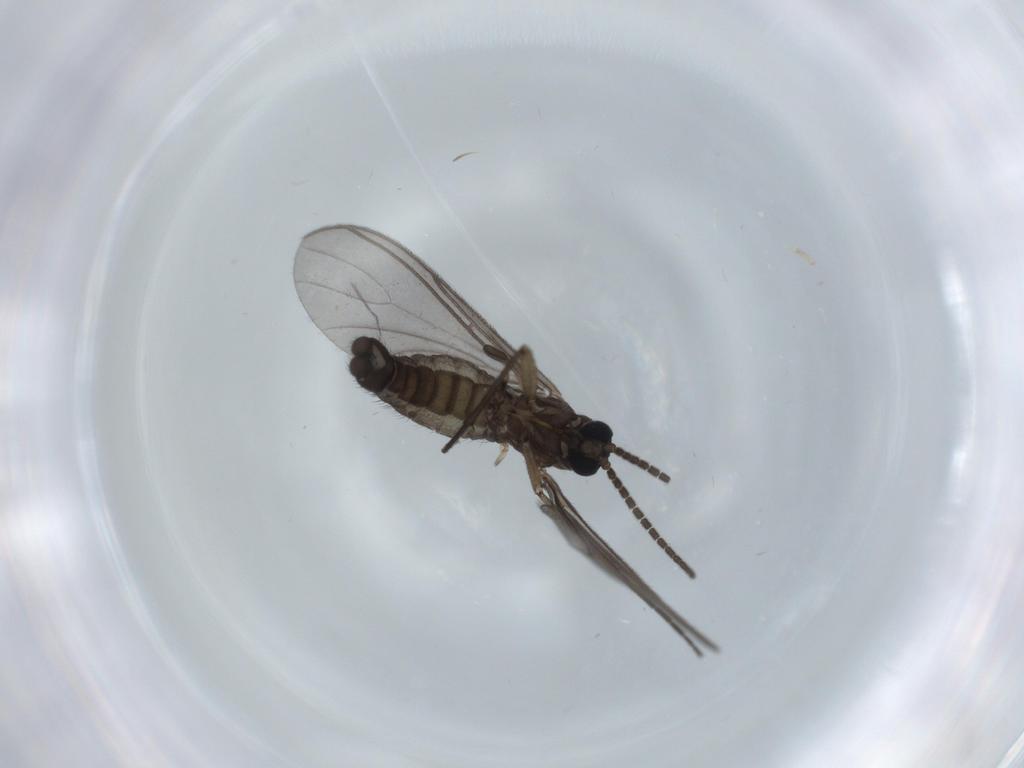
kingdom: Animalia
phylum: Arthropoda
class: Insecta
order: Diptera
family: Sciaridae
